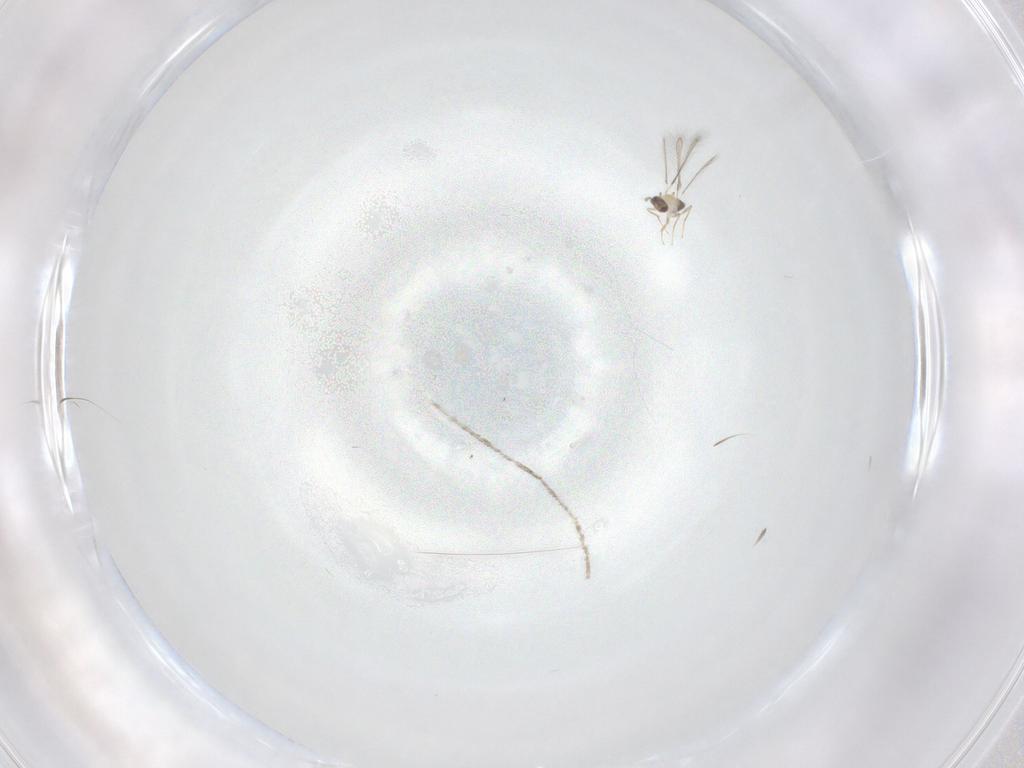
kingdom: Animalia
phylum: Arthropoda
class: Insecta
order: Hymenoptera
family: Mymaridae
